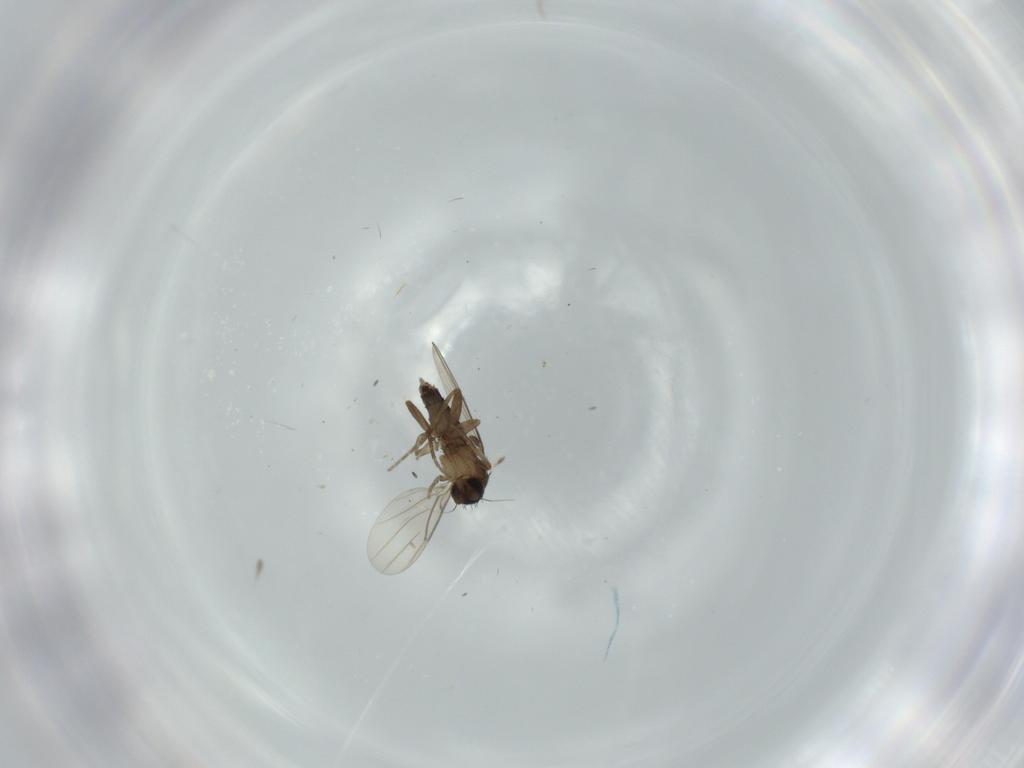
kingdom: Animalia
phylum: Arthropoda
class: Insecta
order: Diptera
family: Phoridae
